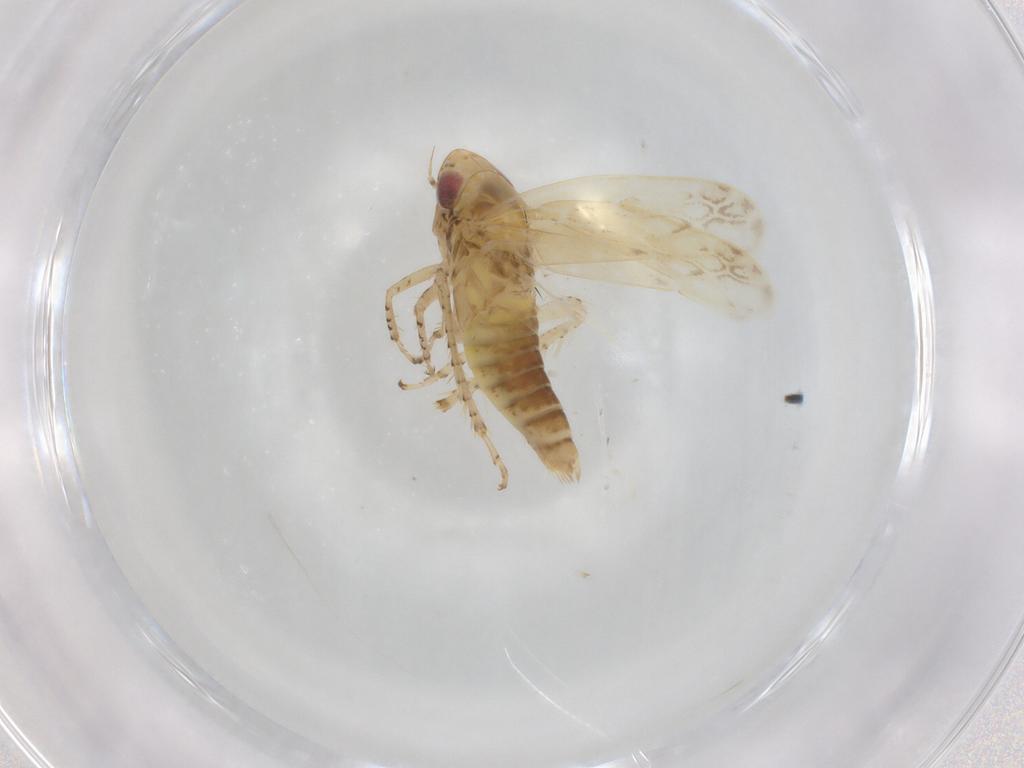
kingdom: Animalia
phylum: Arthropoda
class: Insecta
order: Hemiptera
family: Cicadellidae
